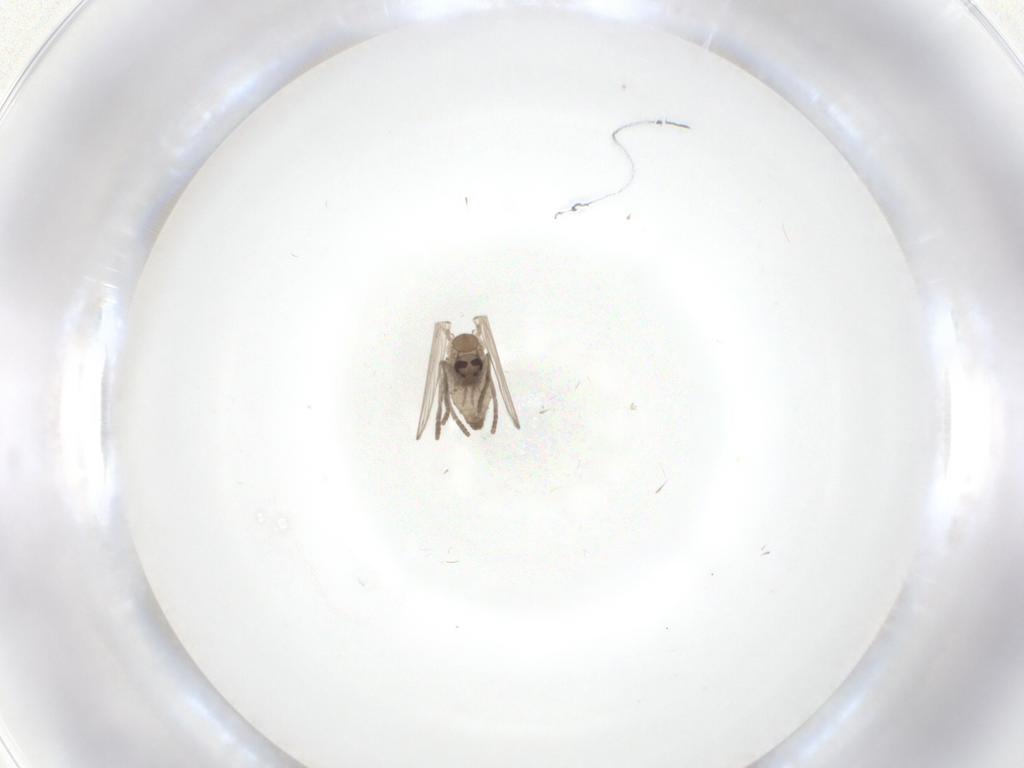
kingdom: Animalia
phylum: Arthropoda
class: Insecta
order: Diptera
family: Psychodidae
